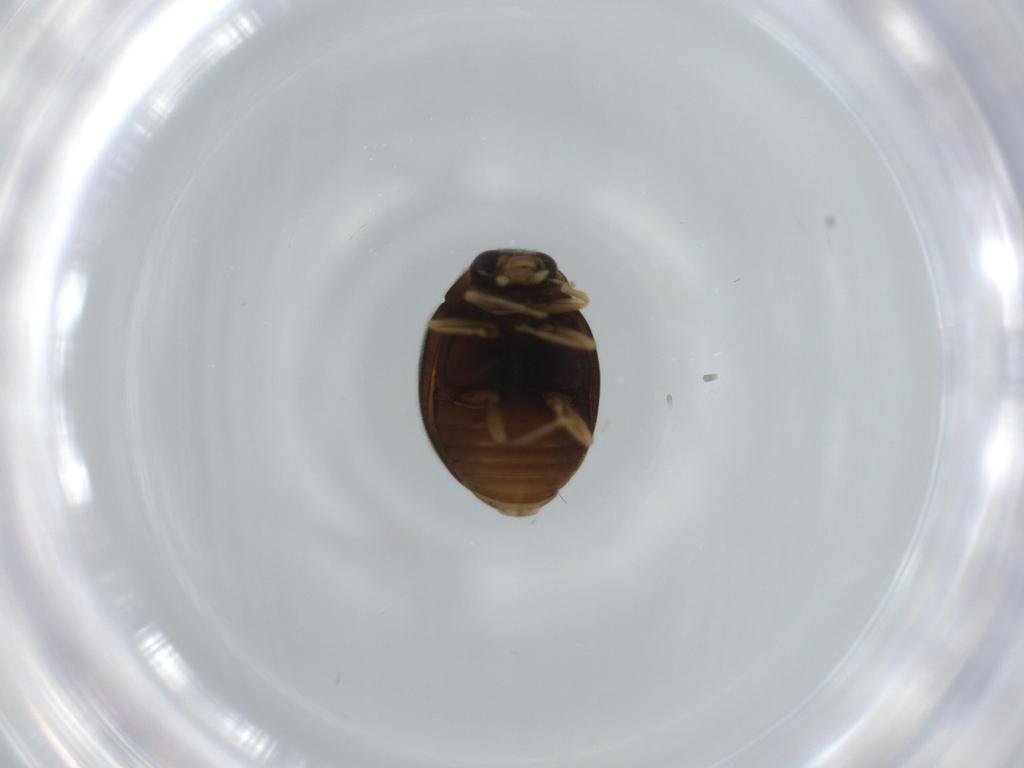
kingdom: Animalia
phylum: Arthropoda
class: Insecta
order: Coleoptera
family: Coccinellidae
